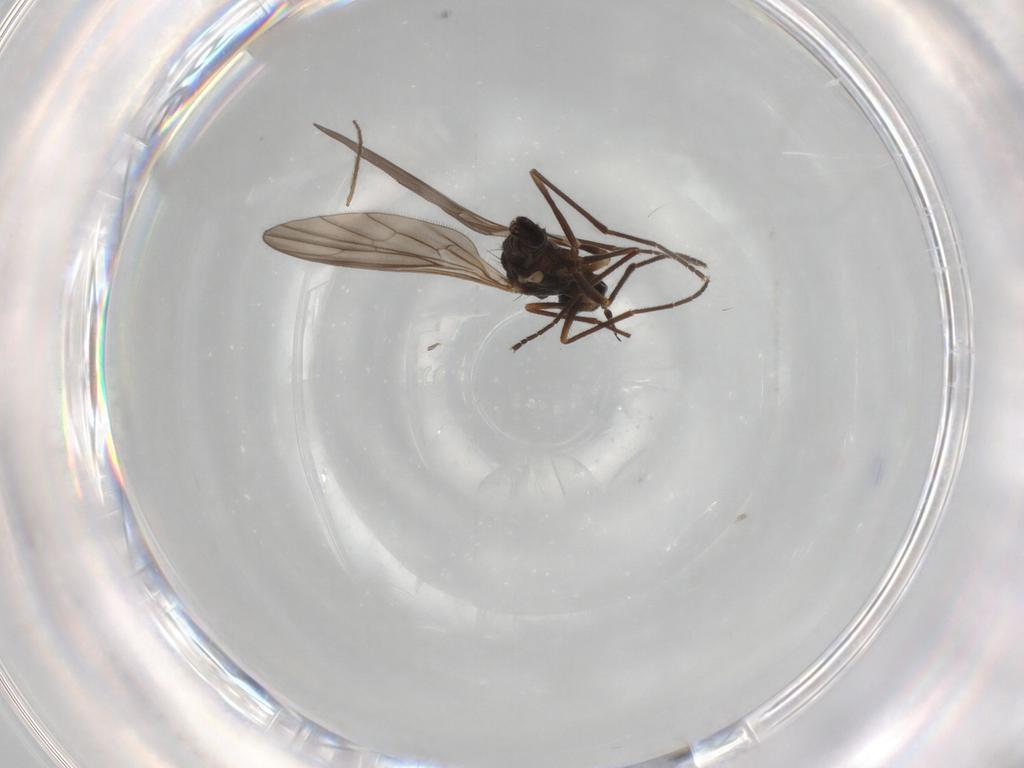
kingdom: Animalia
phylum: Arthropoda
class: Insecta
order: Diptera
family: Empididae
